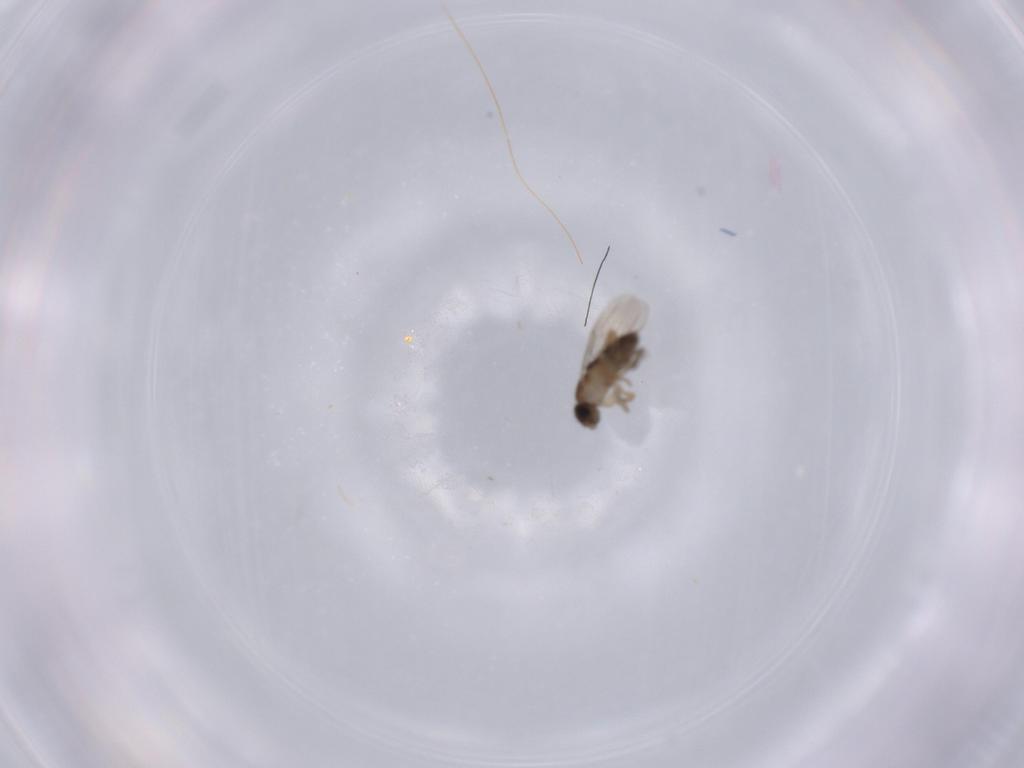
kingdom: Animalia
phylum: Arthropoda
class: Insecta
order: Diptera
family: Phoridae
